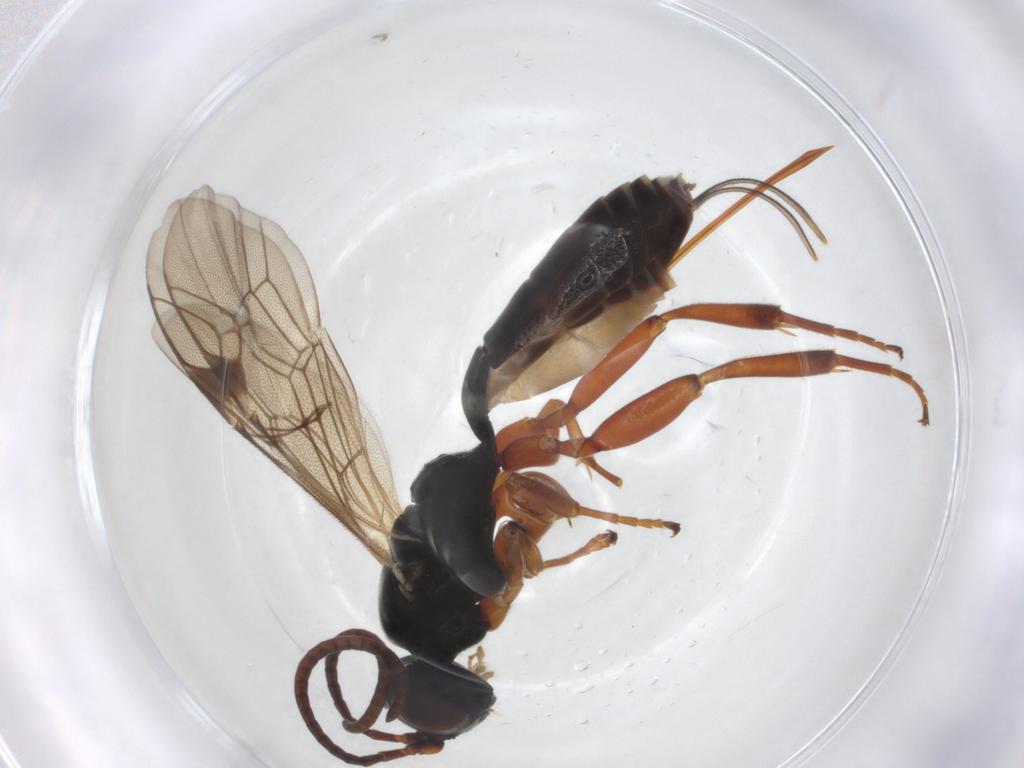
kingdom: Animalia
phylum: Arthropoda
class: Insecta
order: Hymenoptera
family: Ichneumonidae
